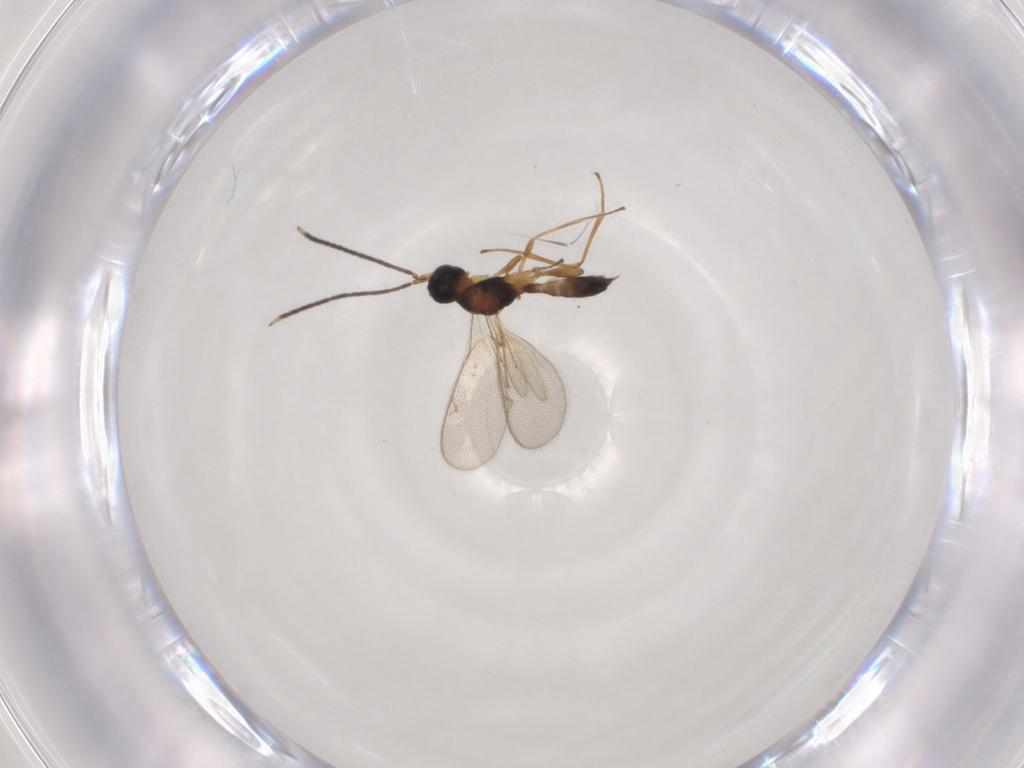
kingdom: Animalia
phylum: Arthropoda
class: Insecta
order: Hymenoptera
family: Pteromalidae
